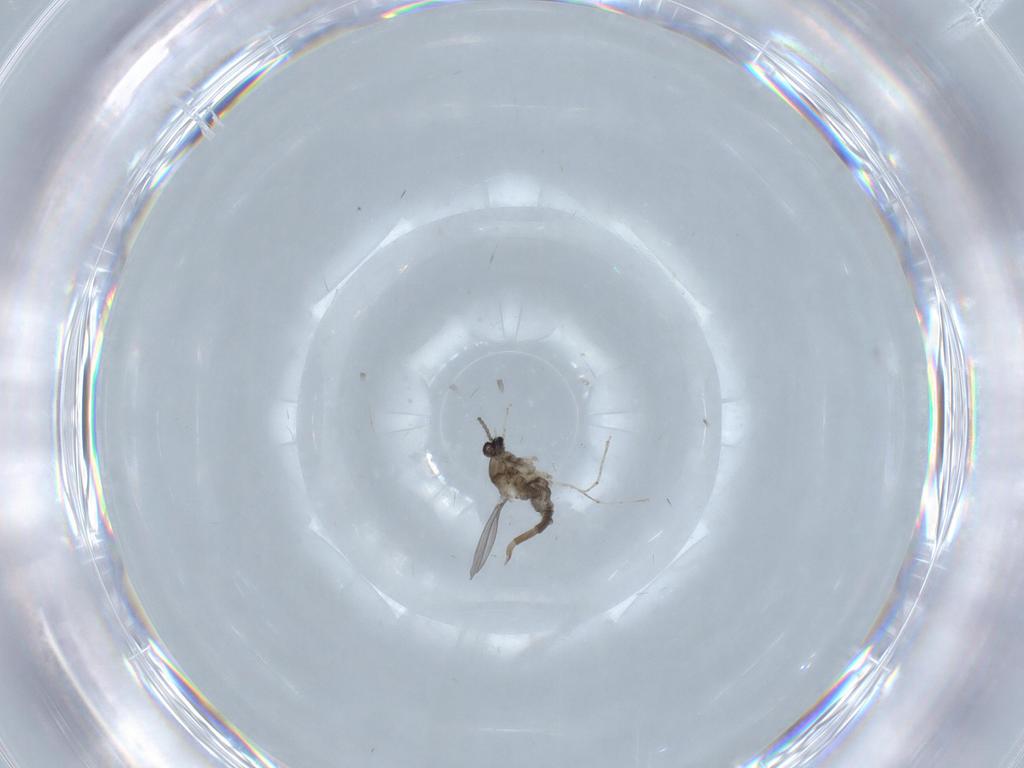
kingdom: Animalia
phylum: Arthropoda
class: Insecta
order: Diptera
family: Cecidomyiidae
